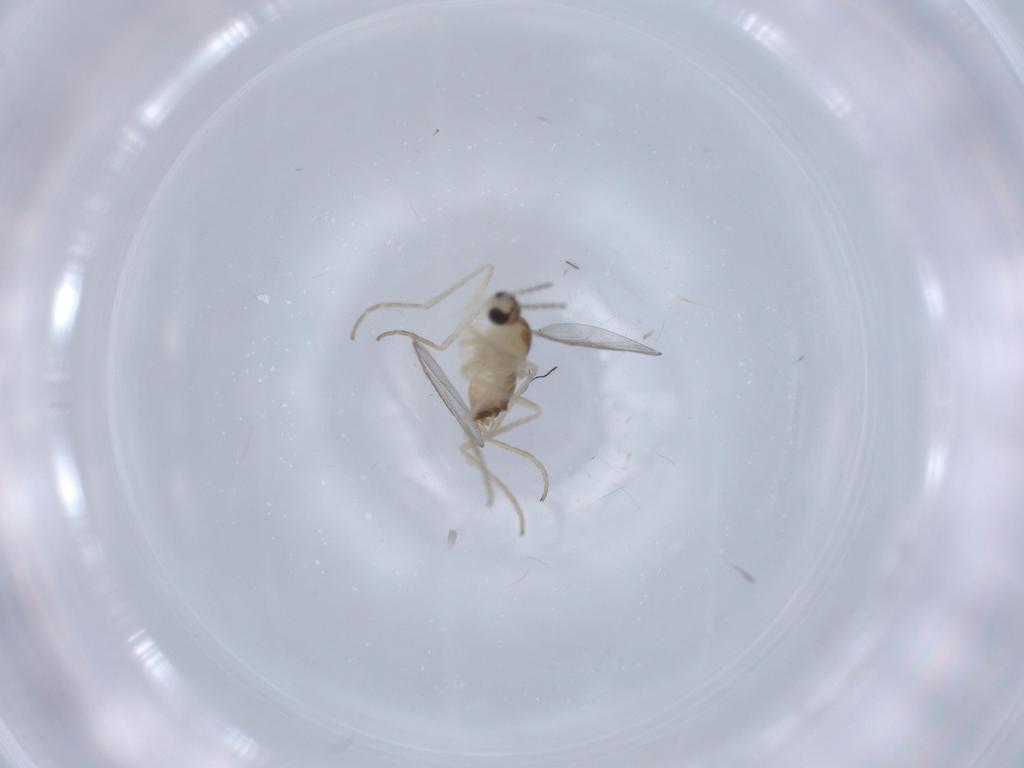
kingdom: Animalia
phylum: Arthropoda
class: Insecta
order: Diptera
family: Cecidomyiidae
